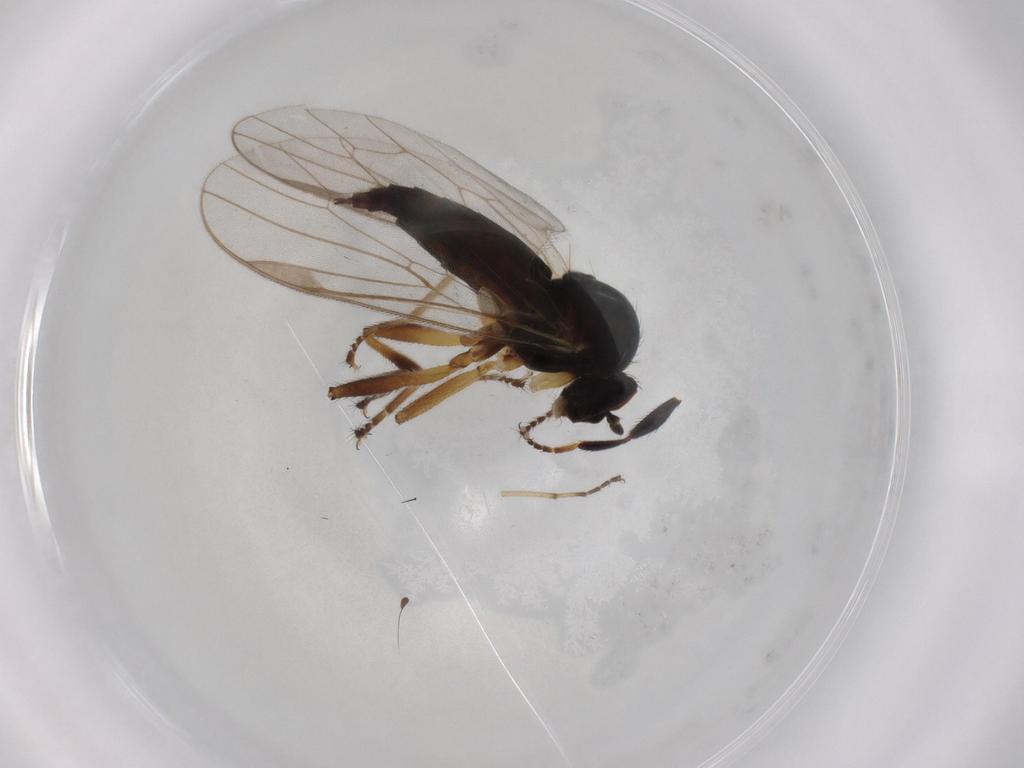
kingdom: Animalia
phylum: Arthropoda
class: Insecta
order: Diptera
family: Hybotidae
